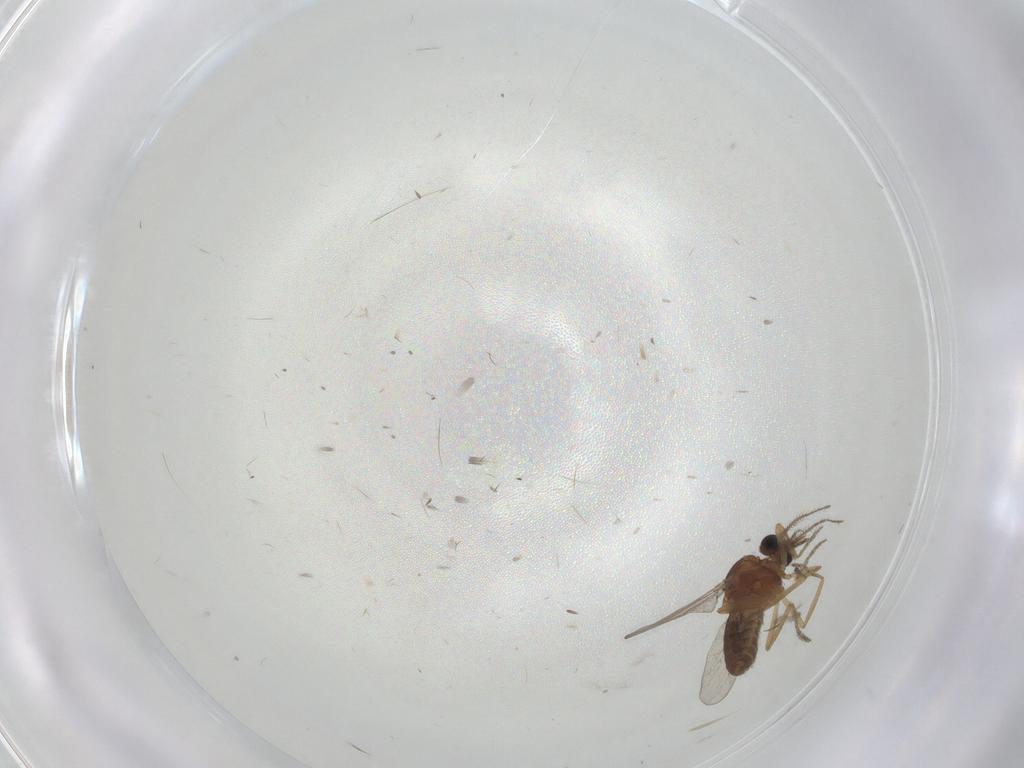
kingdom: Animalia
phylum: Arthropoda
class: Insecta
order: Diptera
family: Ceratopogonidae
